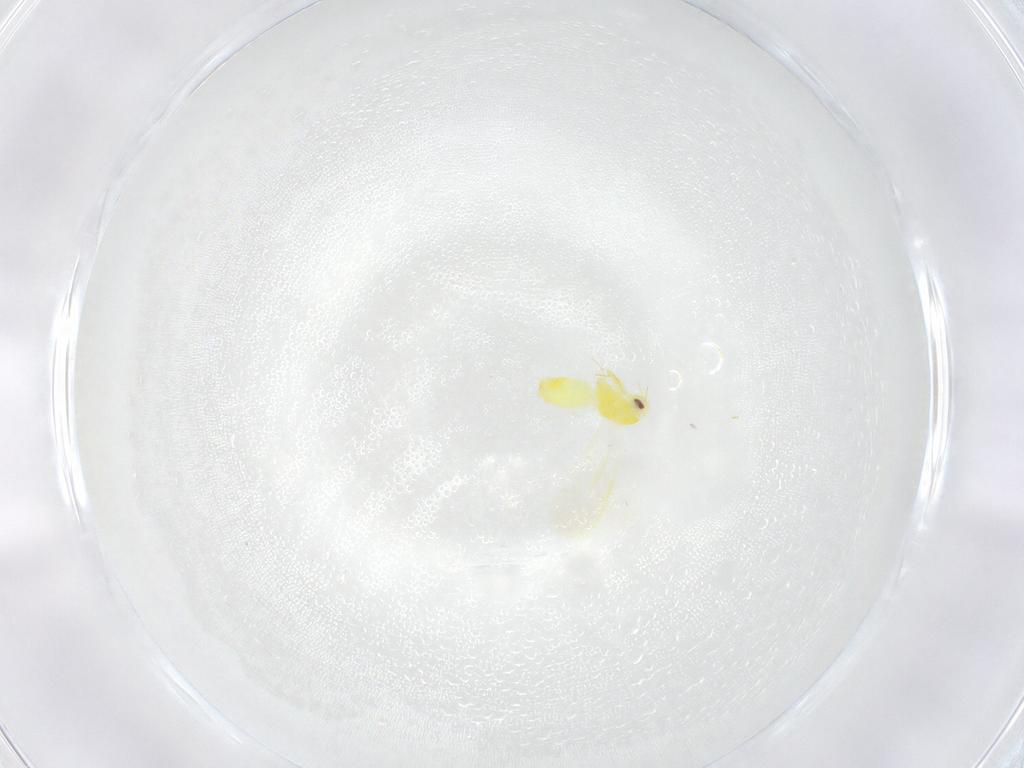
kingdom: Animalia
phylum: Arthropoda
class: Insecta
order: Hemiptera
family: Aleyrodidae
